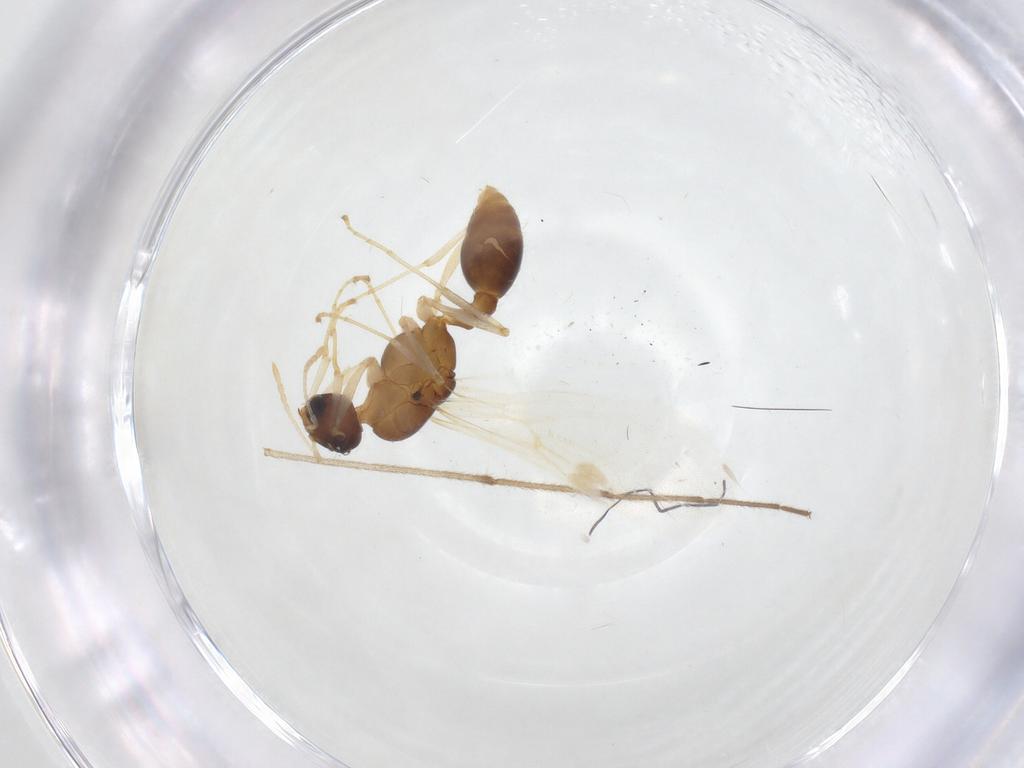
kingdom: Animalia
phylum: Arthropoda
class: Insecta
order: Hymenoptera
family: Formicidae
